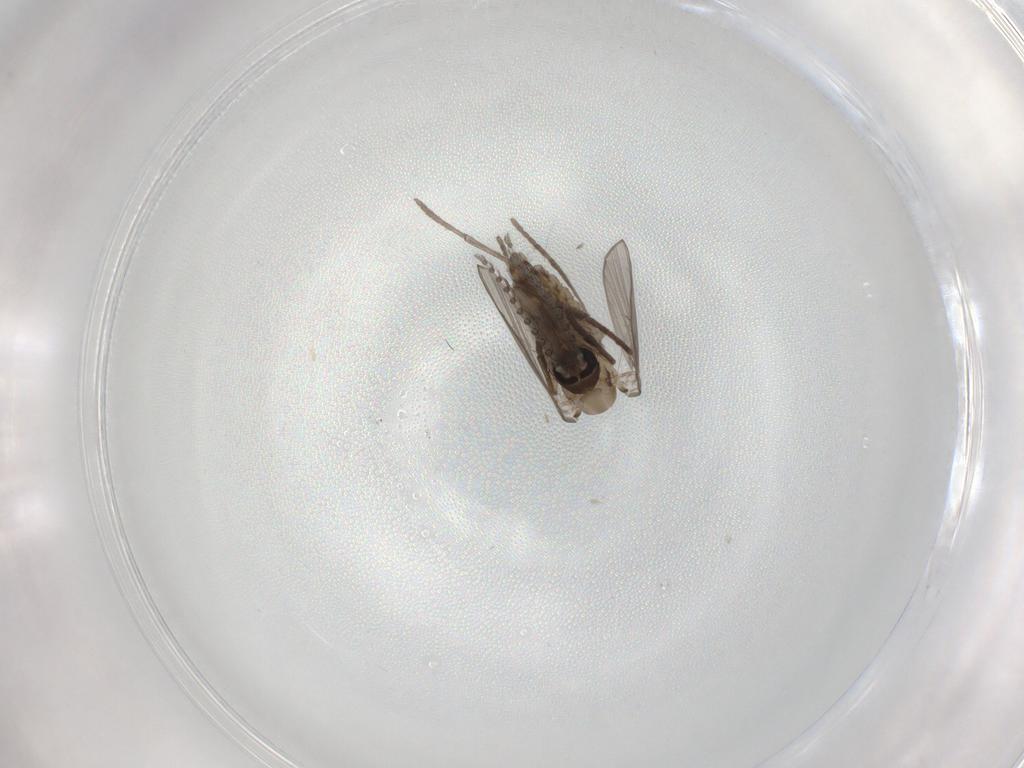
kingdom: Animalia
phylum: Arthropoda
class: Insecta
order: Diptera
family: Psychodidae
